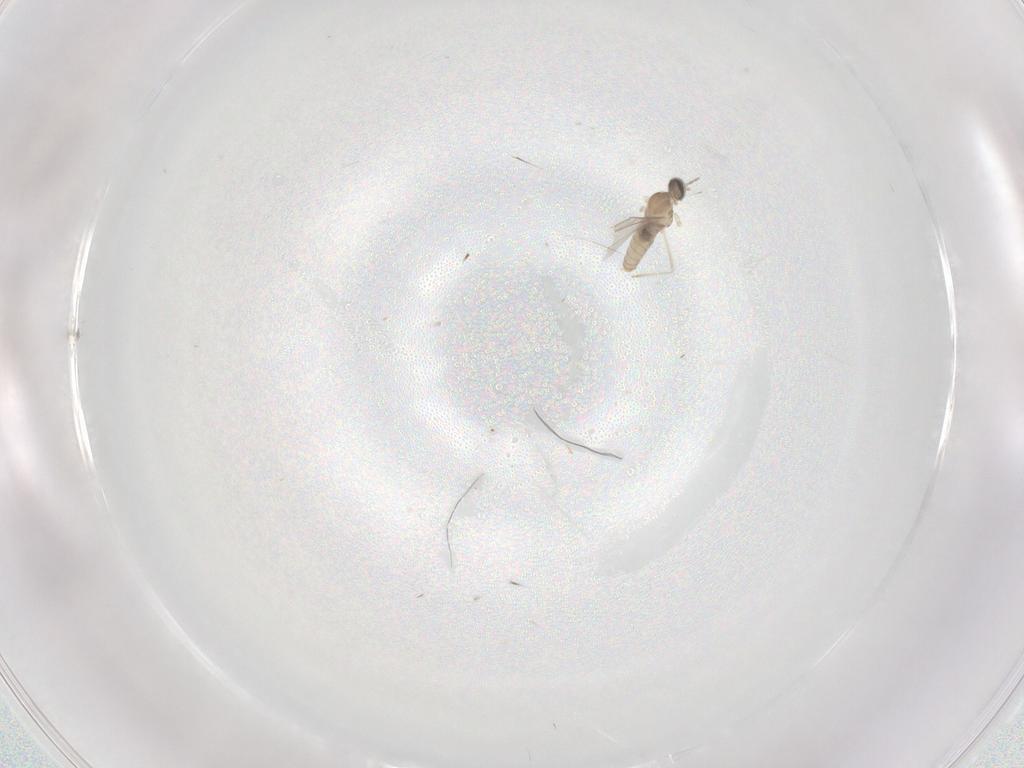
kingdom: Animalia
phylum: Arthropoda
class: Insecta
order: Diptera
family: Cecidomyiidae
